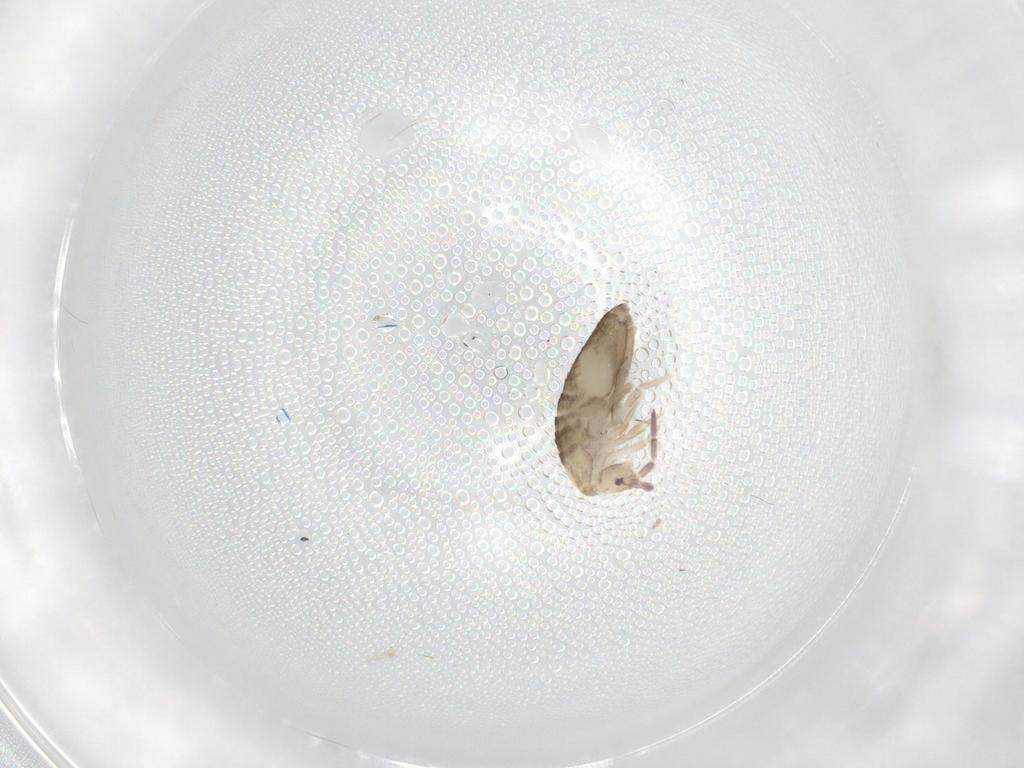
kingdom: Animalia
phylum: Arthropoda
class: Collembola
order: Entomobryomorpha
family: Entomobryidae
